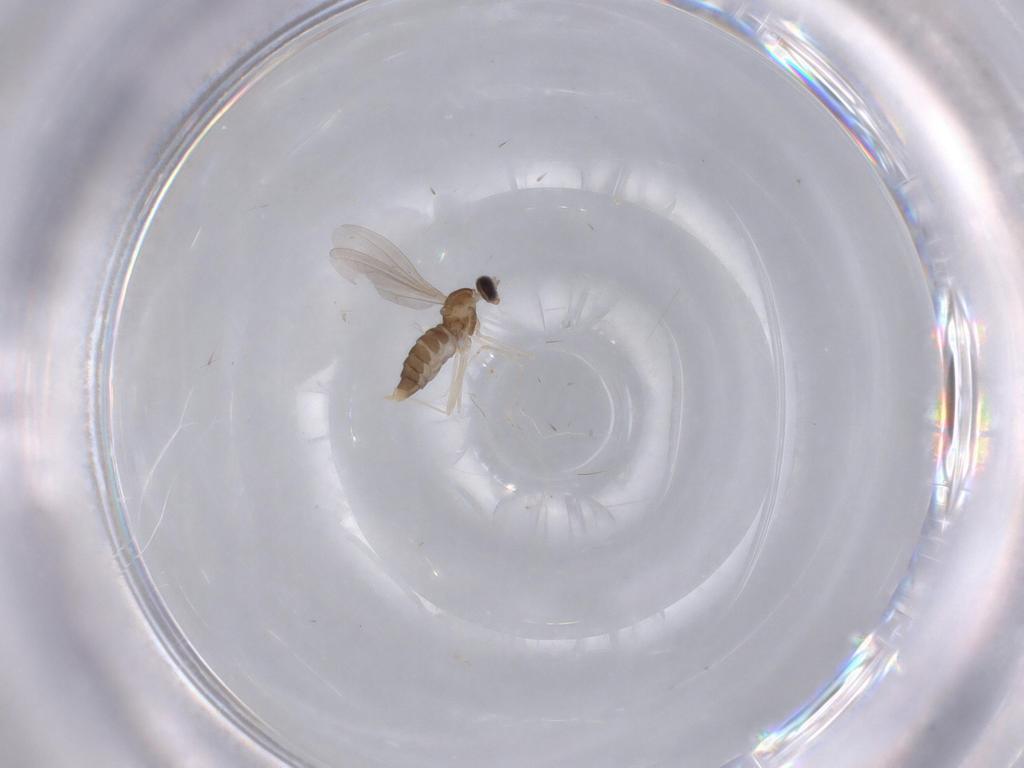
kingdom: Animalia
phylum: Arthropoda
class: Insecta
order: Diptera
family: Cecidomyiidae
